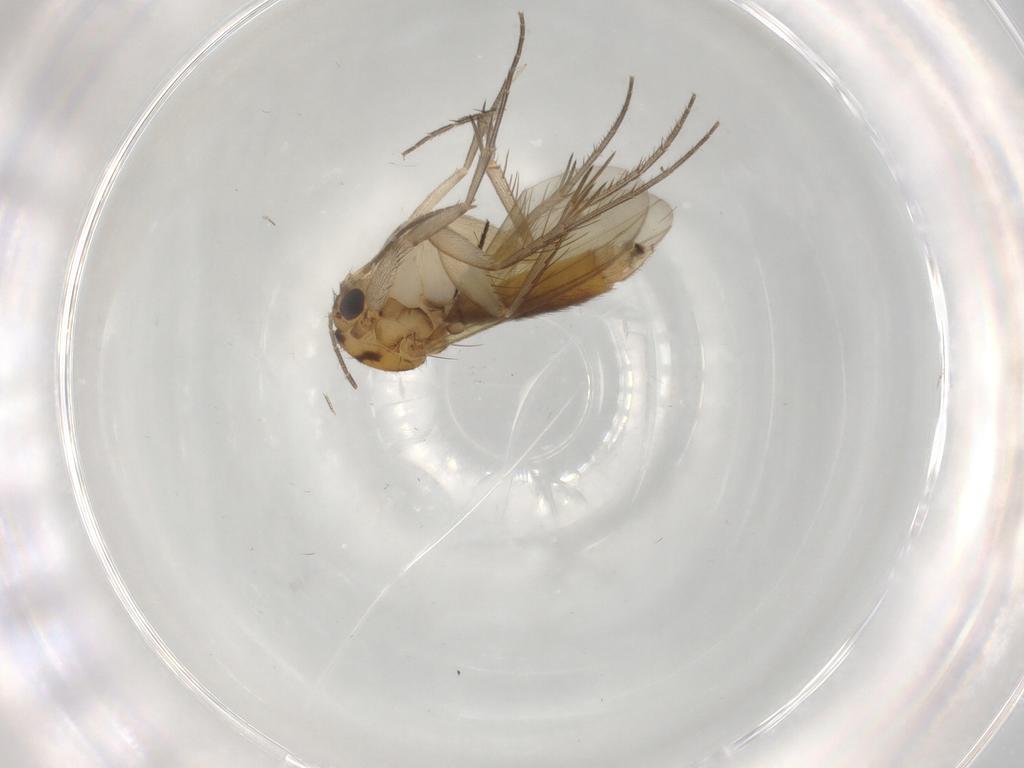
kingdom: Animalia
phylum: Arthropoda
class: Insecta
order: Diptera
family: Mycetophilidae
